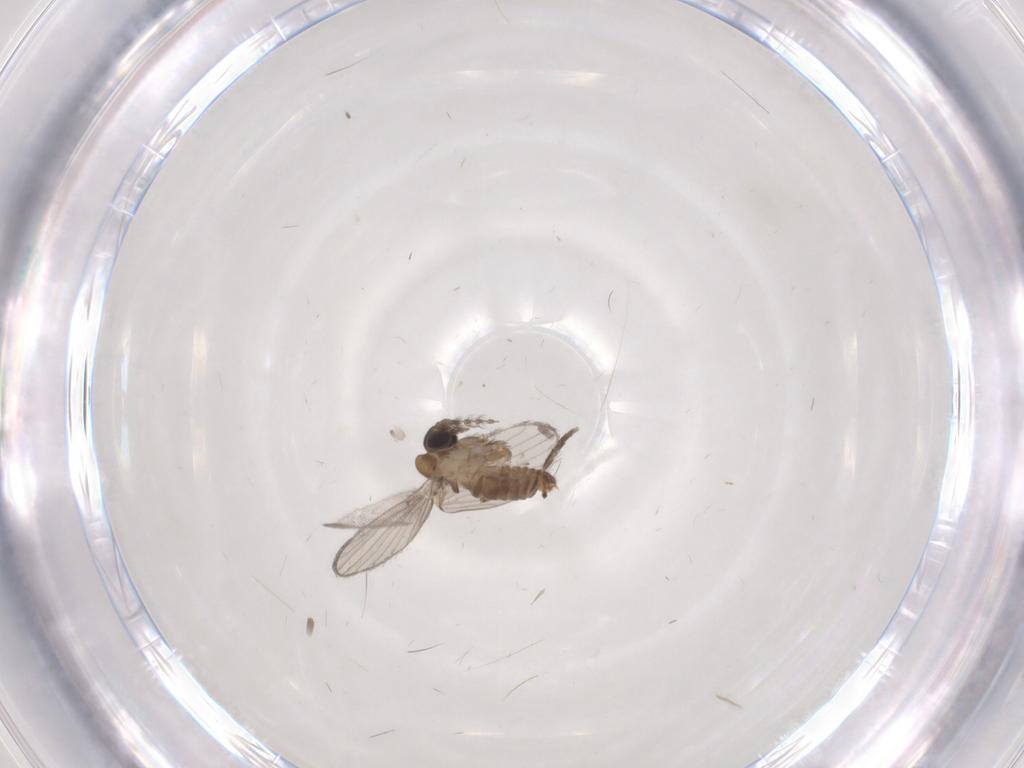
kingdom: Animalia
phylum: Arthropoda
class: Insecta
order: Diptera
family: Psychodidae
